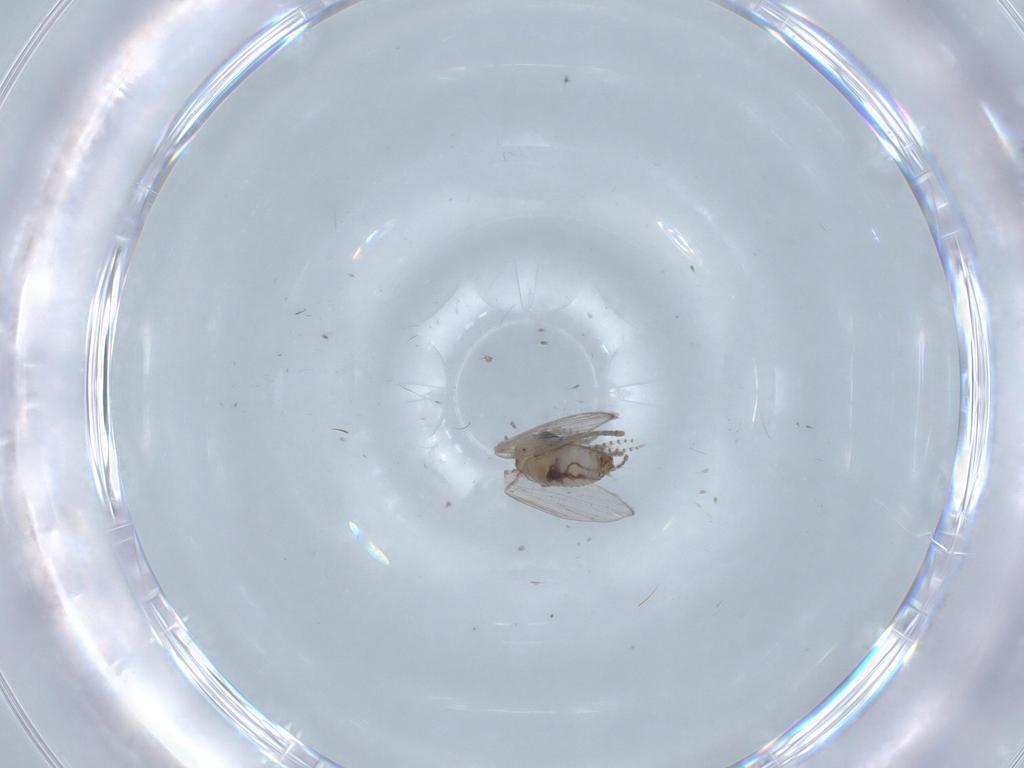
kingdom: Animalia
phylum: Arthropoda
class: Insecta
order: Diptera
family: Psychodidae
